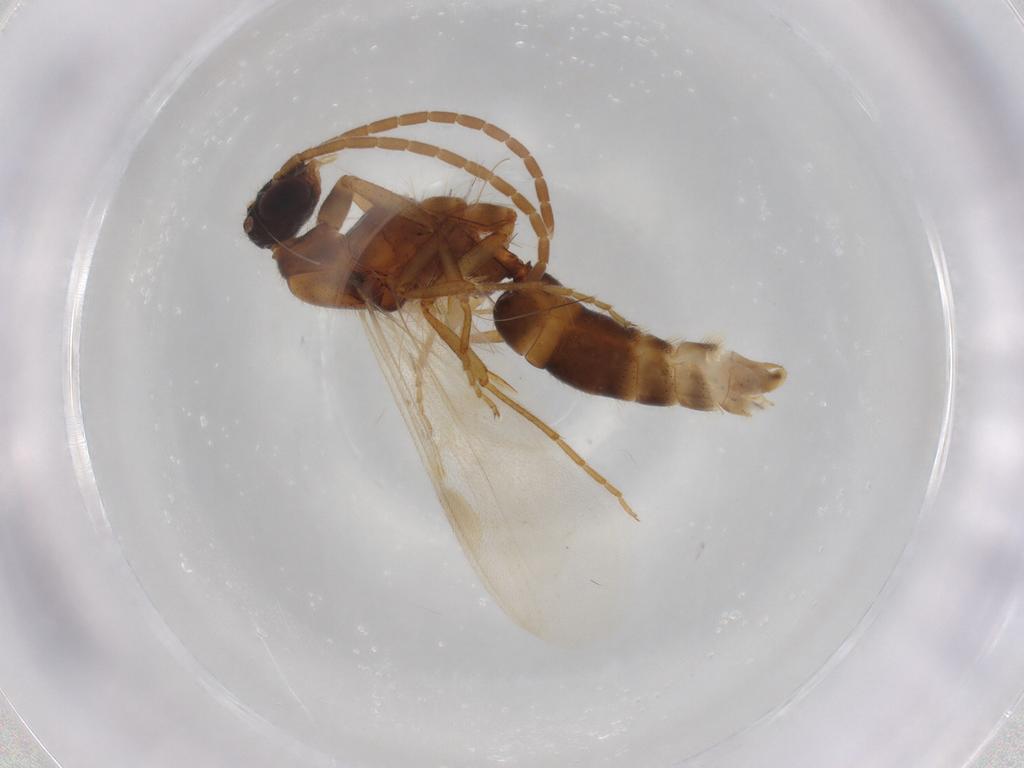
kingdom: Animalia
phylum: Arthropoda
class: Insecta
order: Hymenoptera
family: Formicidae
